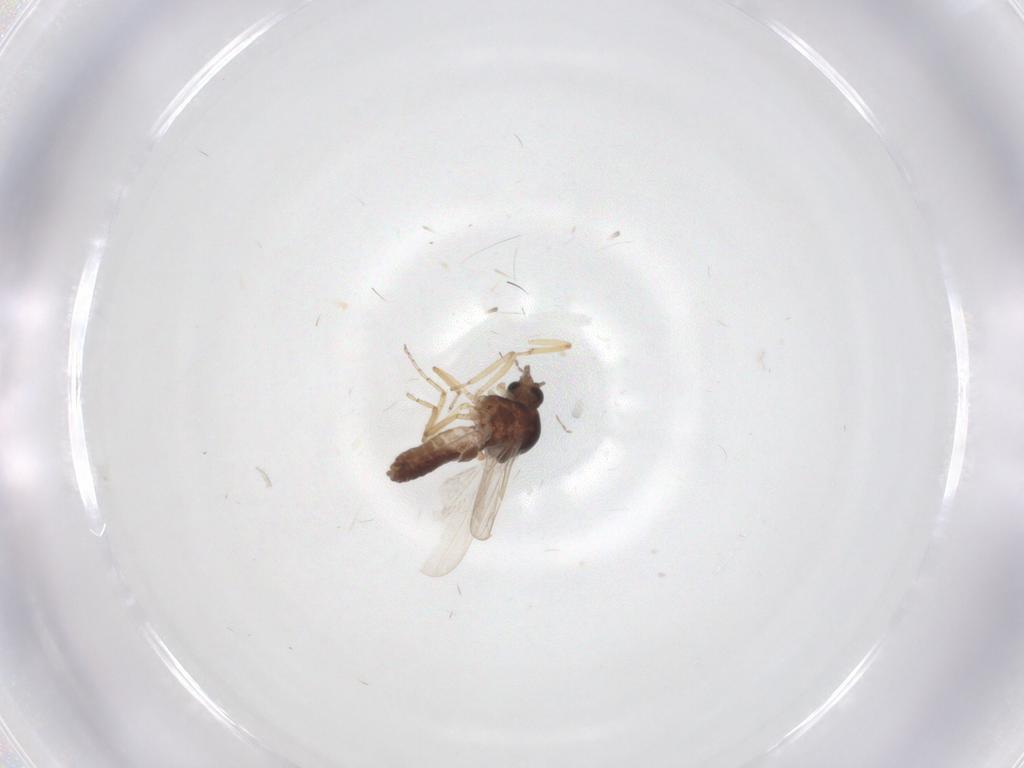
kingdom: Animalia
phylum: Arthropoda
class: Insecta
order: Diptera
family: Ceratopogonidae
